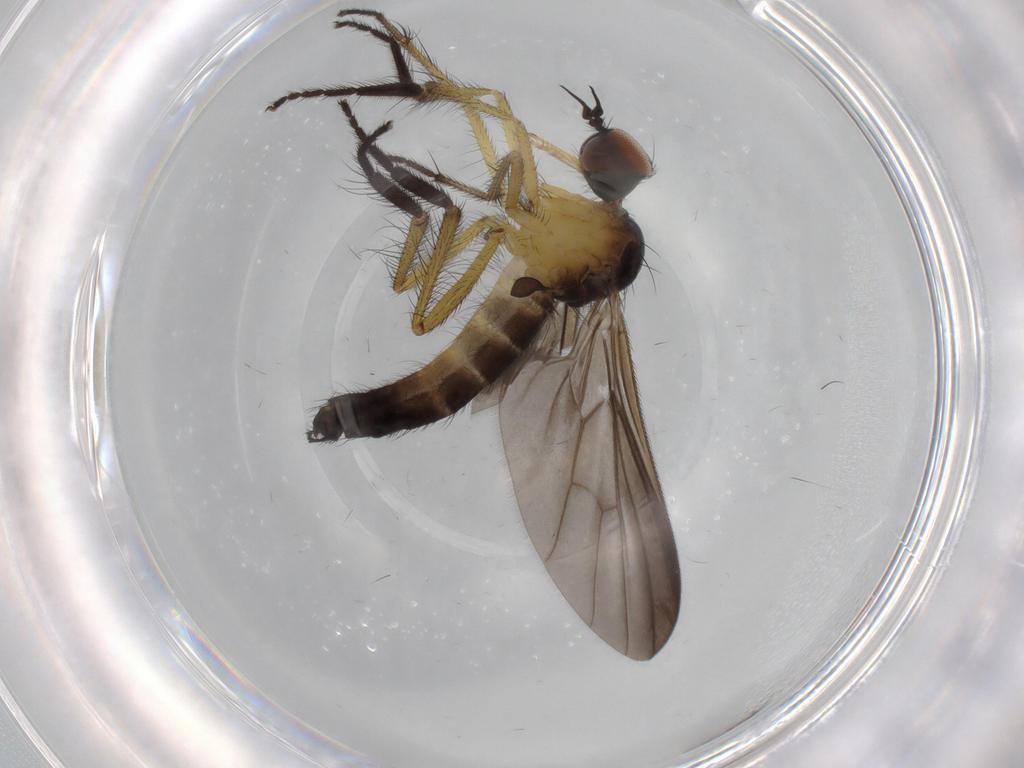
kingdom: Animalia
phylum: Arthropoda
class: Insecta
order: Diptera
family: Empididae
